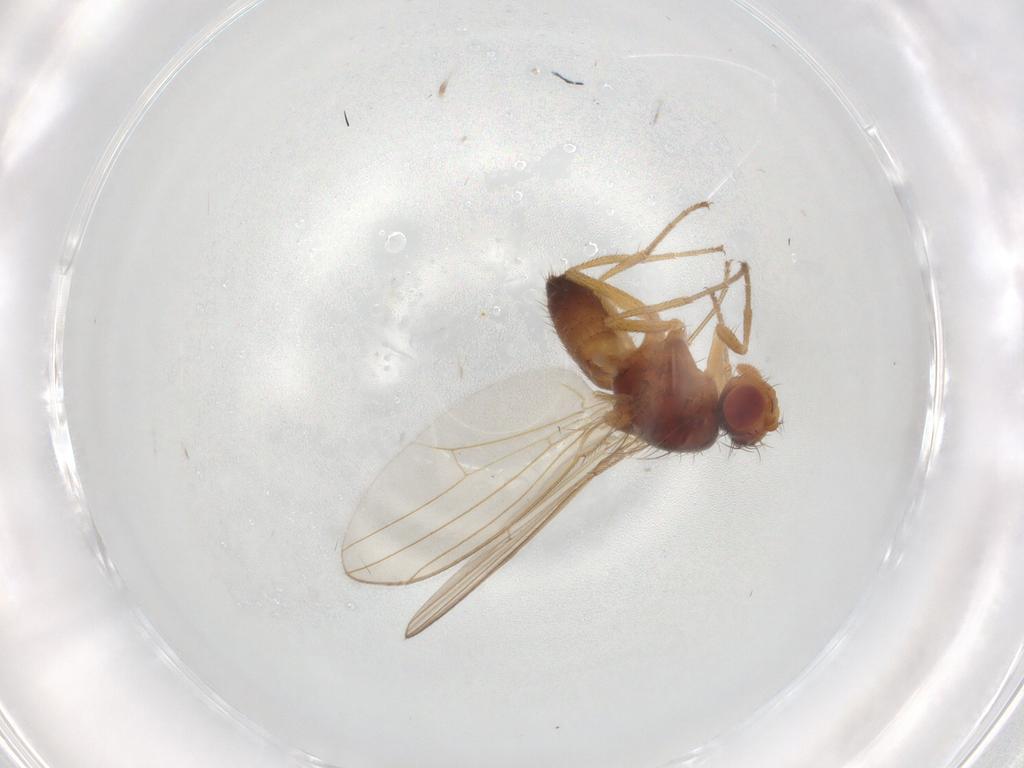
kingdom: Animalia
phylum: Arthropoda
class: Insecta
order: Diptera
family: Drosophilidae
